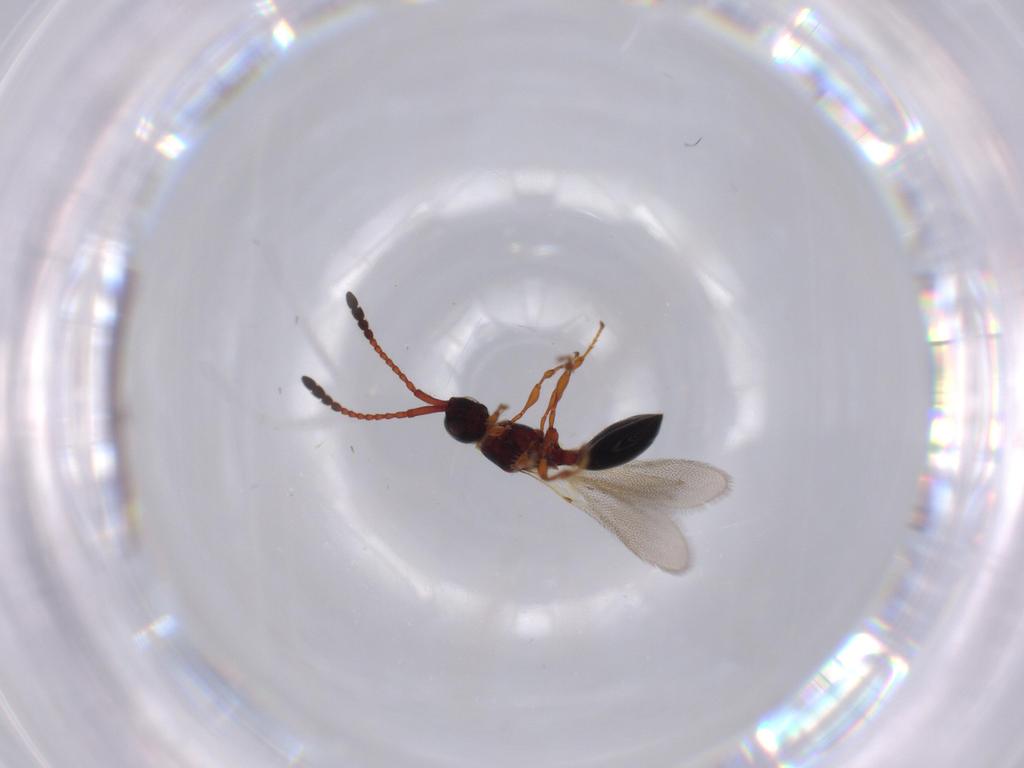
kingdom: Animalia
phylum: Arthropoda
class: Insecta
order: Hymenoptera
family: Diapriidae
